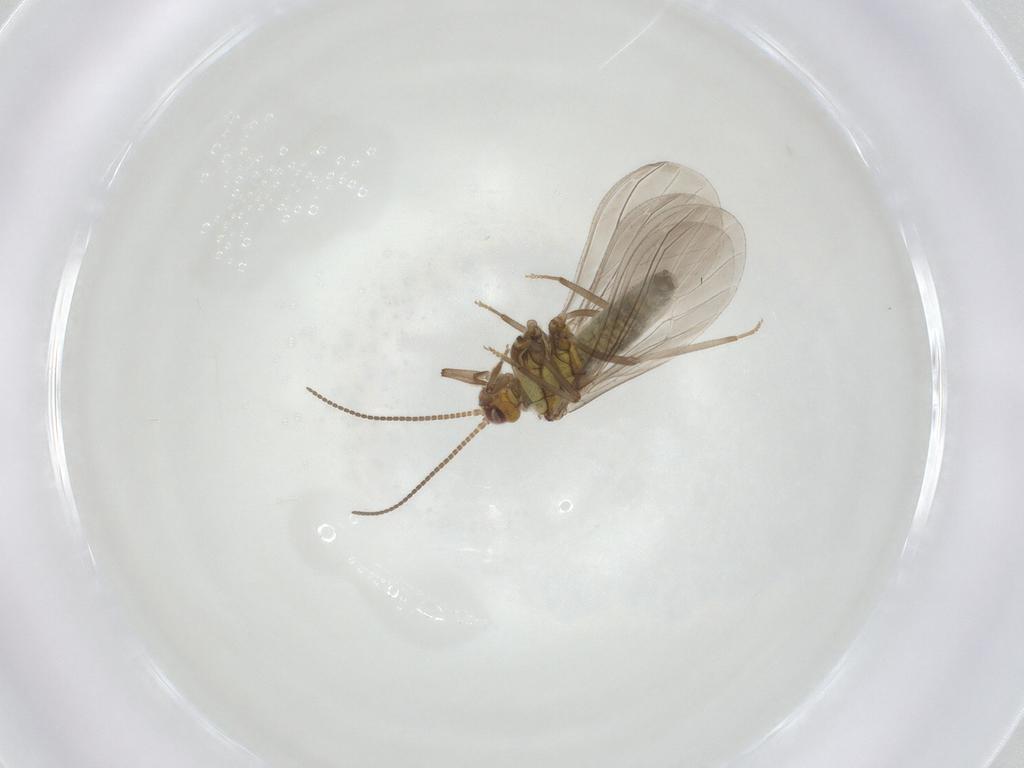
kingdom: Animalia
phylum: Arthropoda
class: Insecta
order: Neuroptera
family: Coniopterygidae
